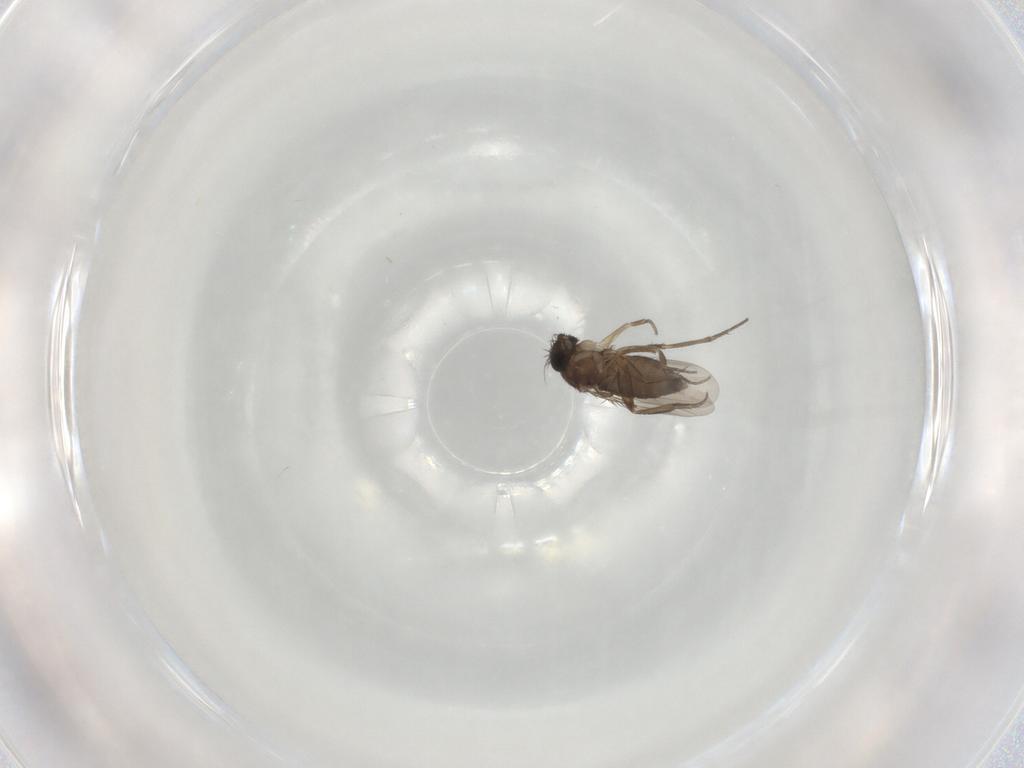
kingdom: Animalia
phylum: Arthropoda
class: Insecta
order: Diptera
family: Phoridae
